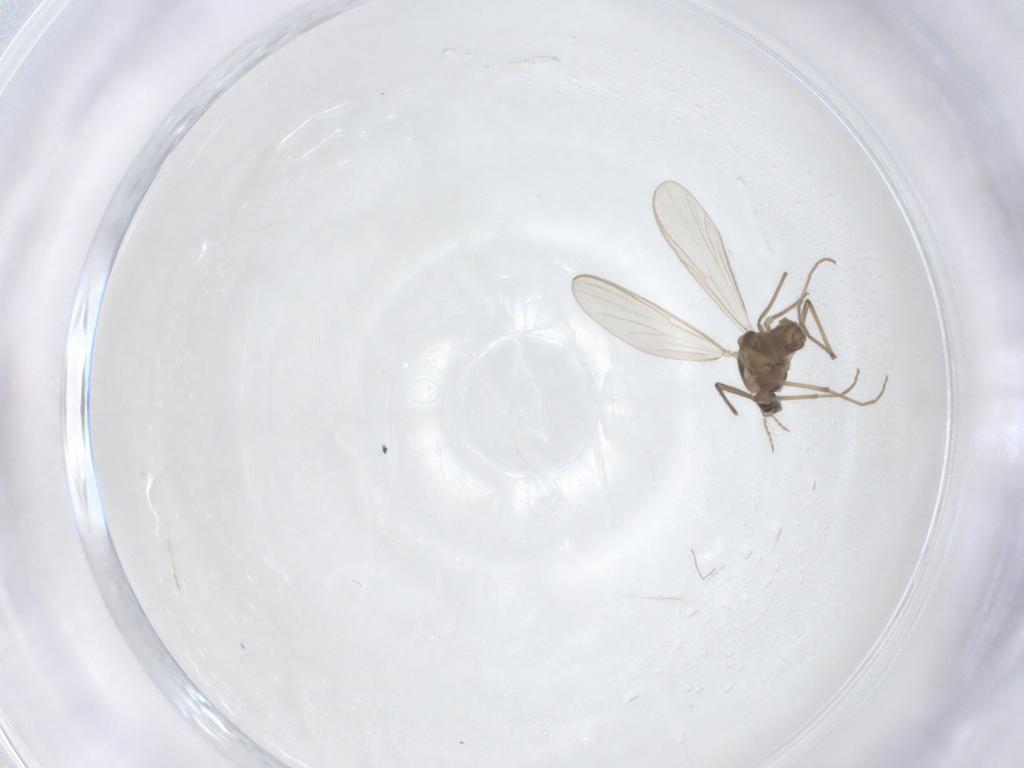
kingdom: Animalia
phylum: Arthropoda
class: Insecta
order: Diptera
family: Chironomidae
